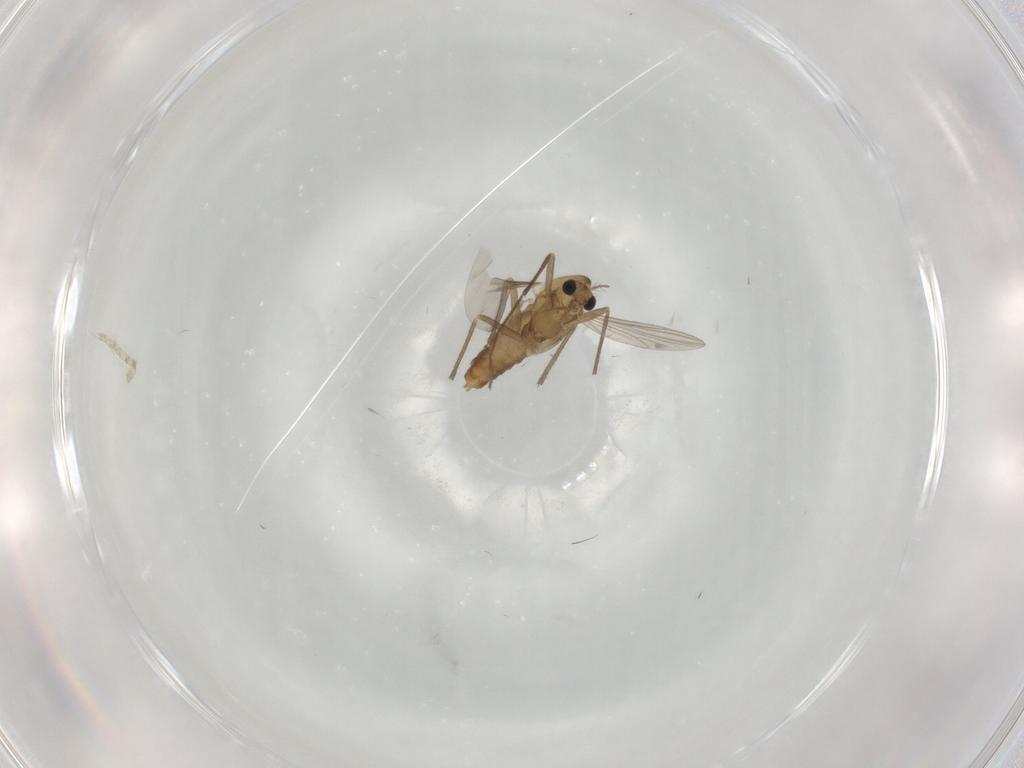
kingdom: Animalia
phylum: Arthropoda
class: Insecta
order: Diptera
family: Chironomidae
